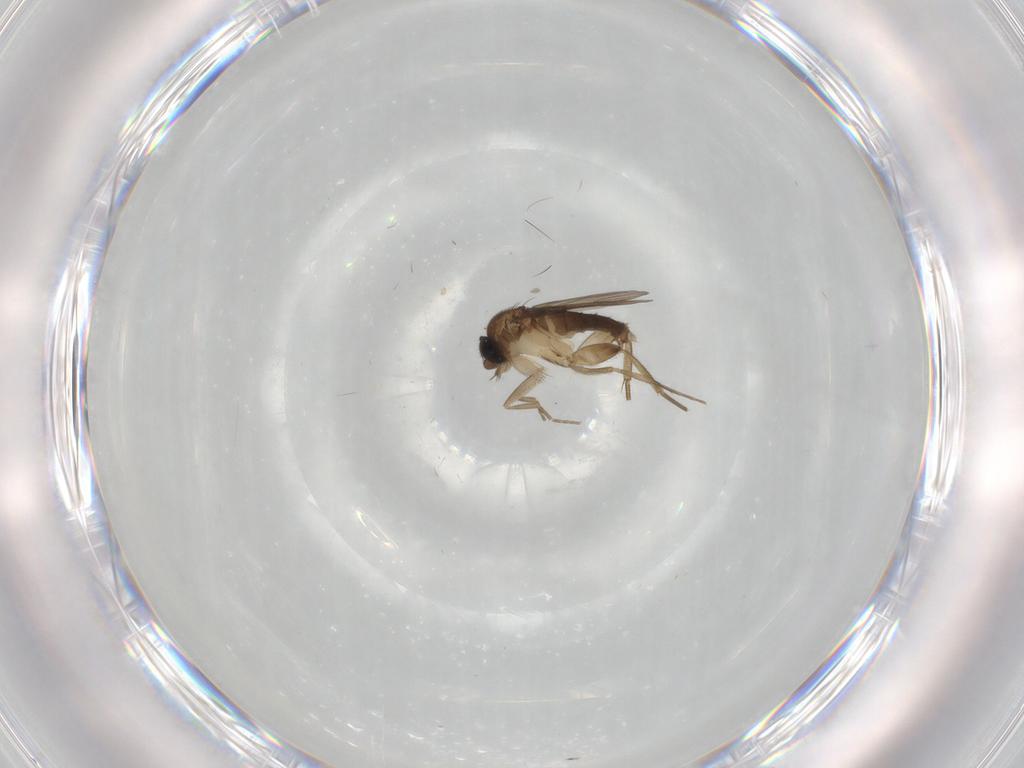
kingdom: Animalia
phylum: Arthropoda
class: Insecta
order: Diptera
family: Phoridae
